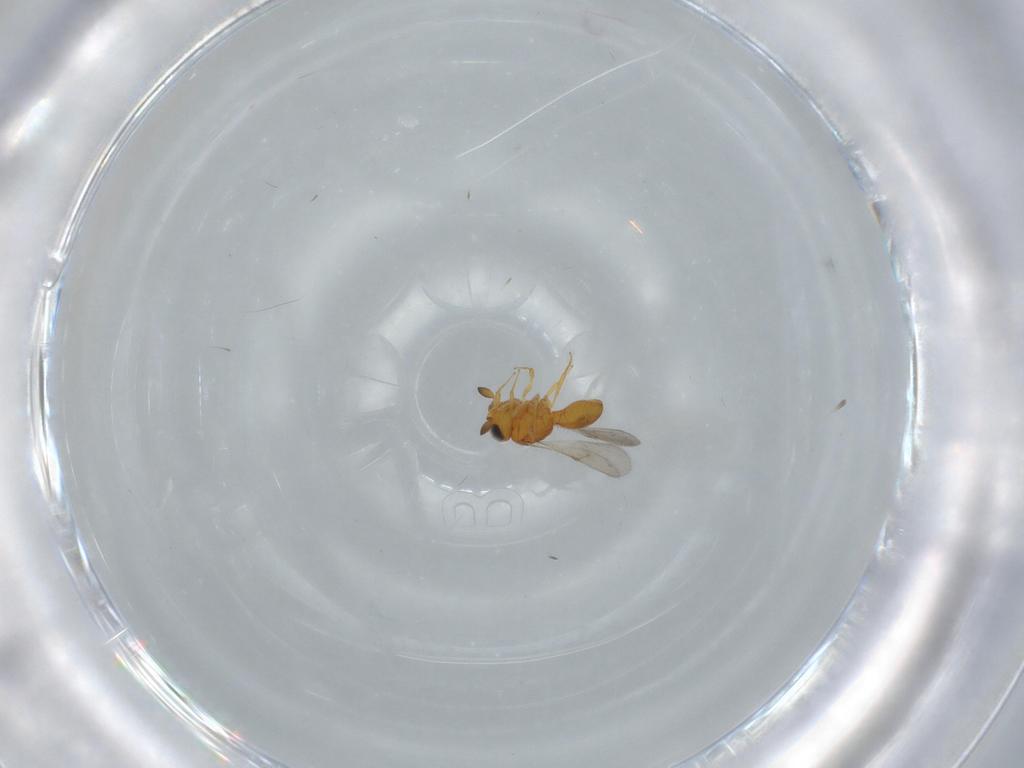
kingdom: Animalia
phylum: Arthropoda
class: Insecta
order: Hymenoptera
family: Scelionidae
